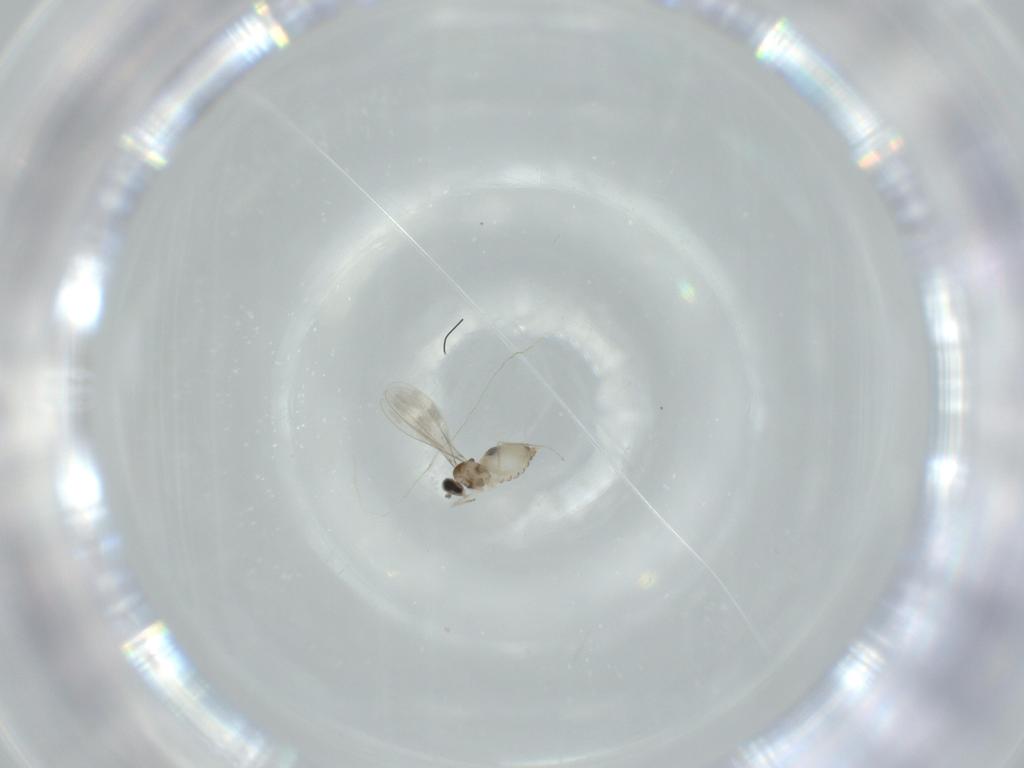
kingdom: Animalia
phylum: Arthropoda
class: Insecta
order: Diptera
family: Cecidomyiidae
